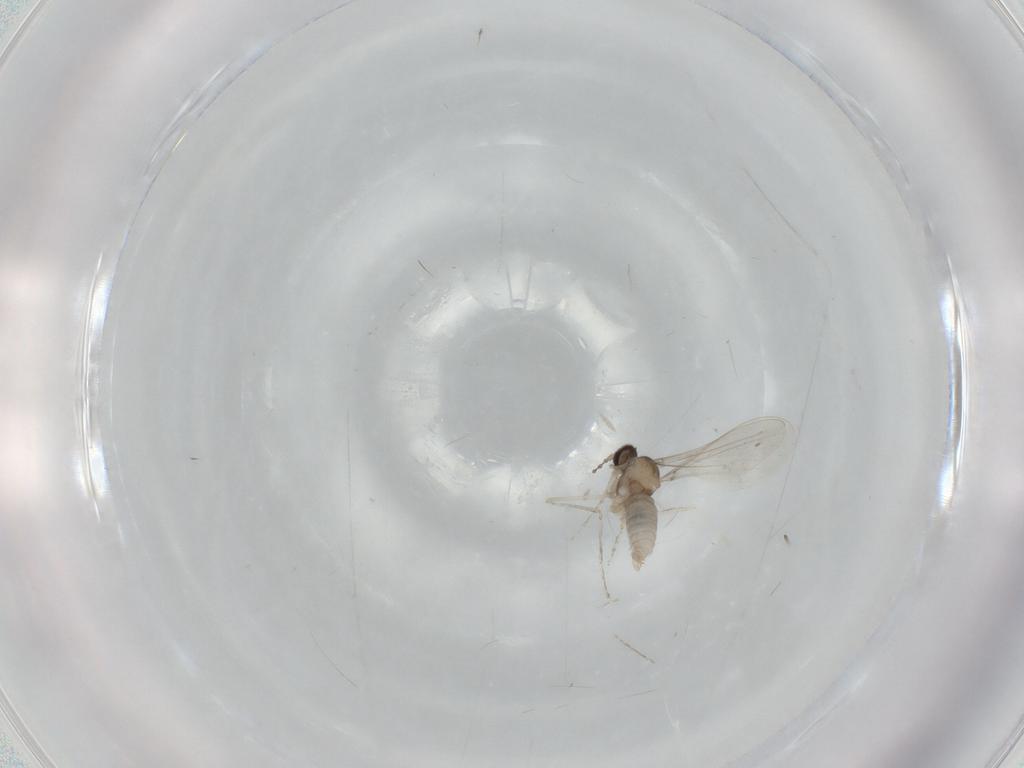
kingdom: Animalia
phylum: Arthropoda
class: Insecta
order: Diptera
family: Cecidomyiidae
